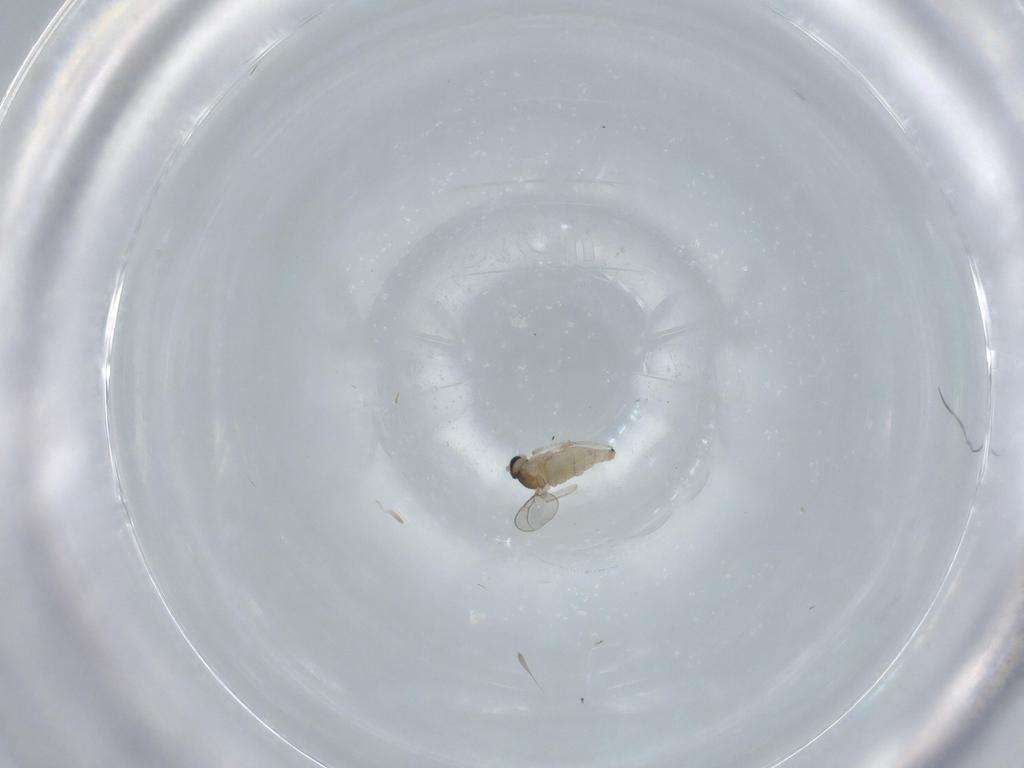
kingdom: Animalia
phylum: Arthropoda
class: Insecta
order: Diptera
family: Cecidomyiidae
